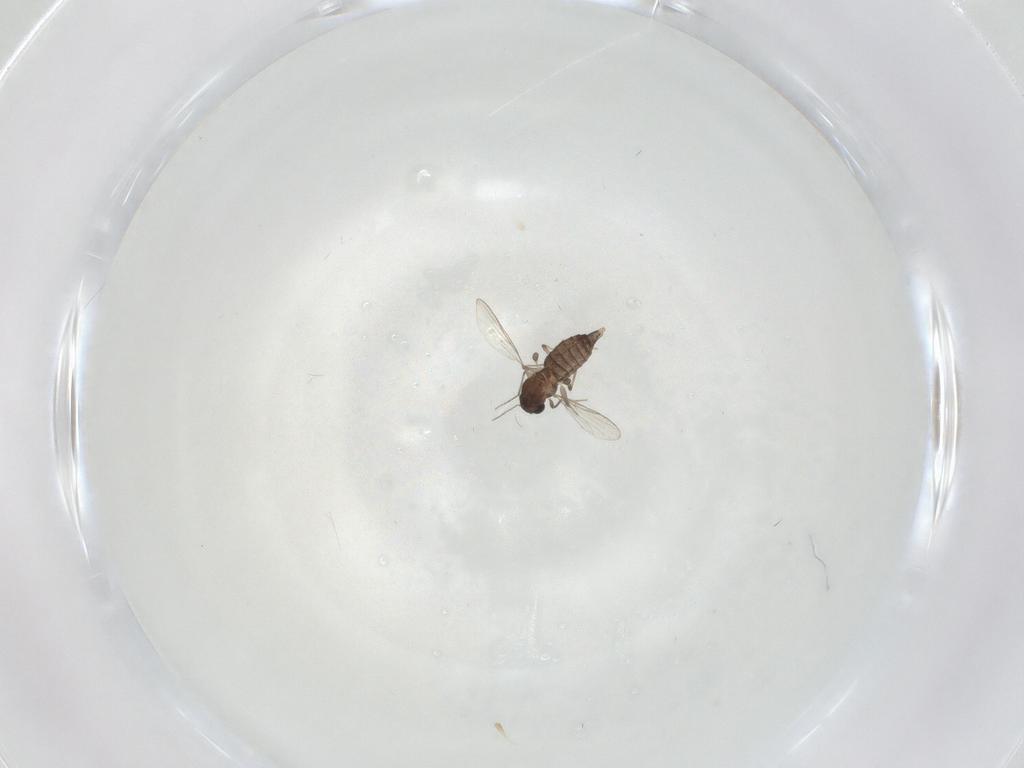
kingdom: Animalia
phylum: Arthropoda
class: Insecta
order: Diptera
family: Chironomidae
